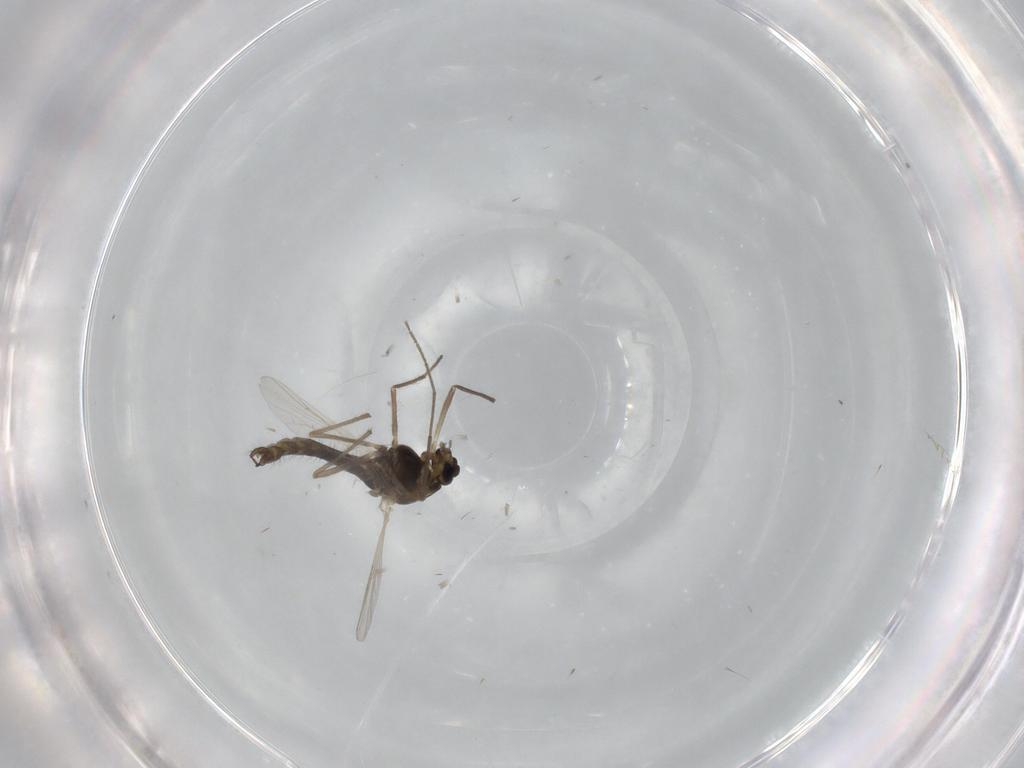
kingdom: Animalia
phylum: Arthropoda
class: Insecta
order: Diptera
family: Chironomidae
